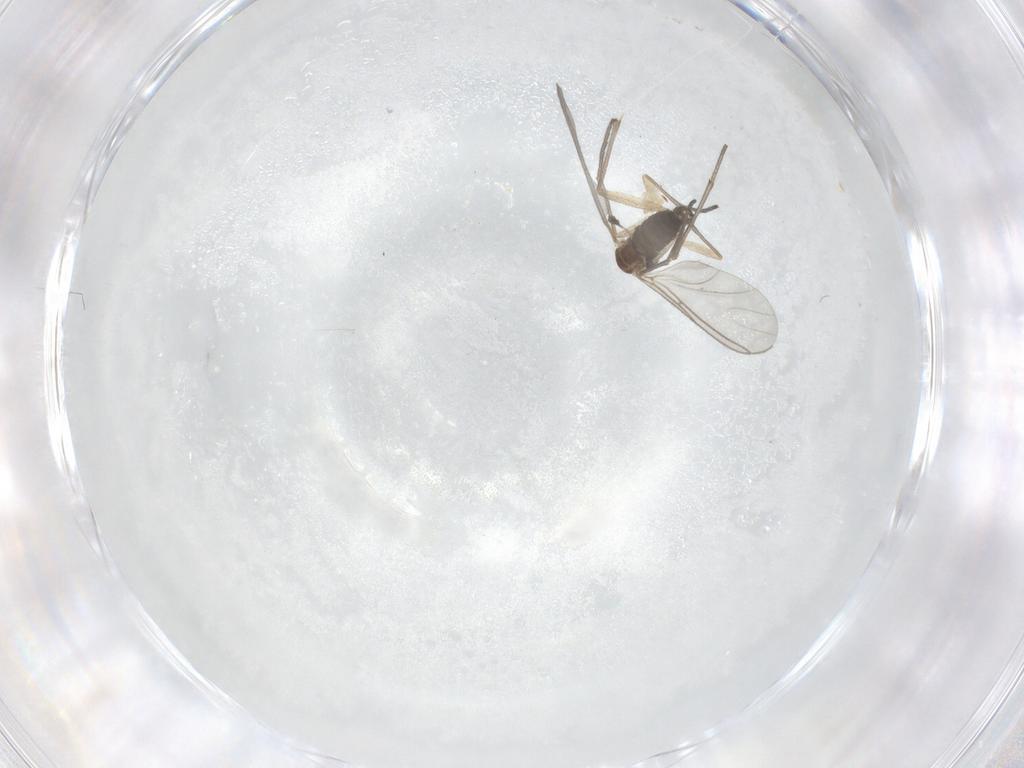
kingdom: Animalia
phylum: Arthropoda
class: Insecta
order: Diptera
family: Sciaridae
